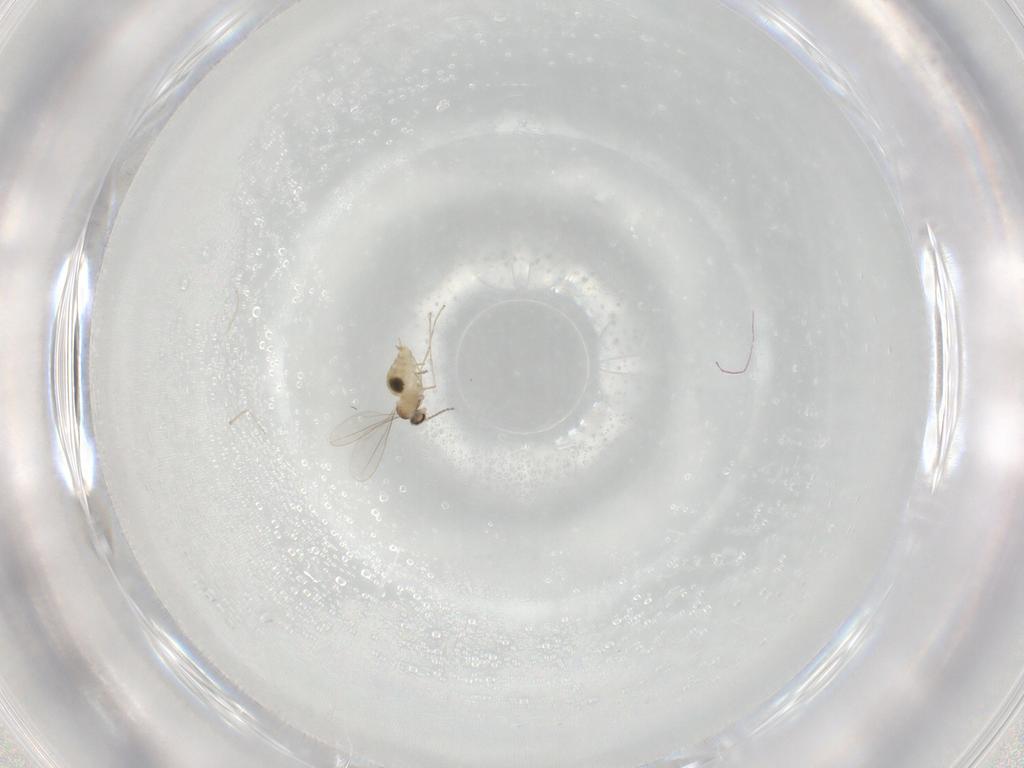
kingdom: Animalia
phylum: Arthropoda
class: Insecta
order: Diptera
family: Cecidomyiidae
